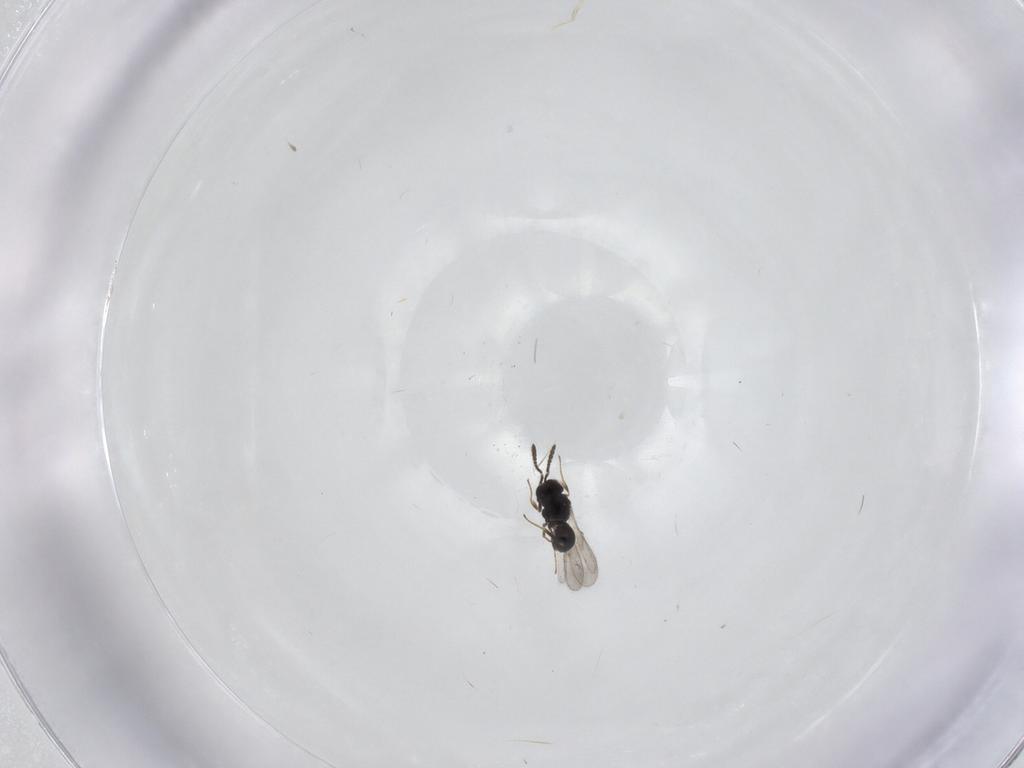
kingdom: Animalia
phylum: Arthropoda
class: Insecta
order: Hymenoptera
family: Scelionidae
